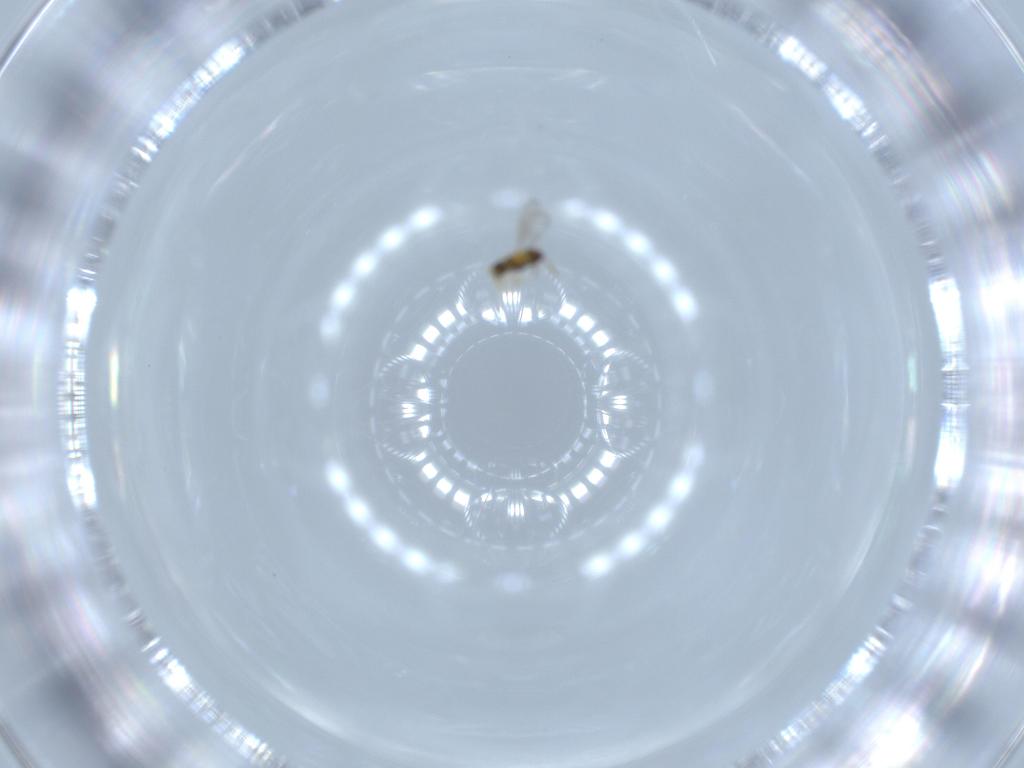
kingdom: Animalia
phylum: Arthropoda
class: Insecta
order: Hymenoptera
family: Aphelinidae
